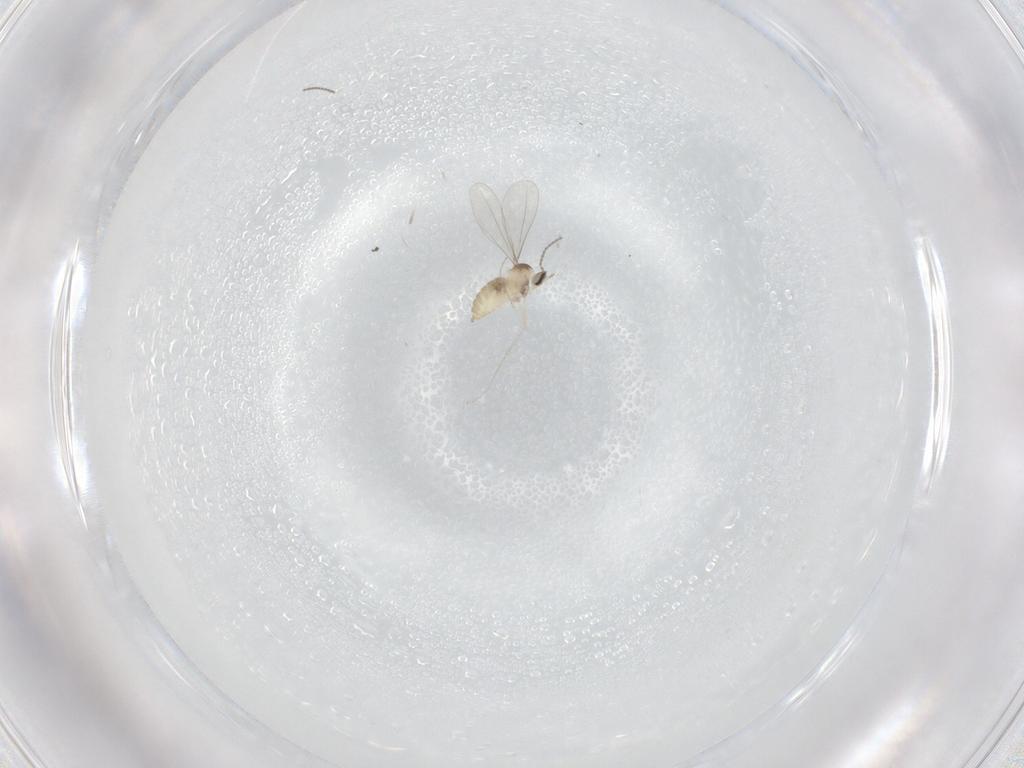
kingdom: Animalia
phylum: Arthropoda
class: Insecta
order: Diptera
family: Cecidomyiidae
